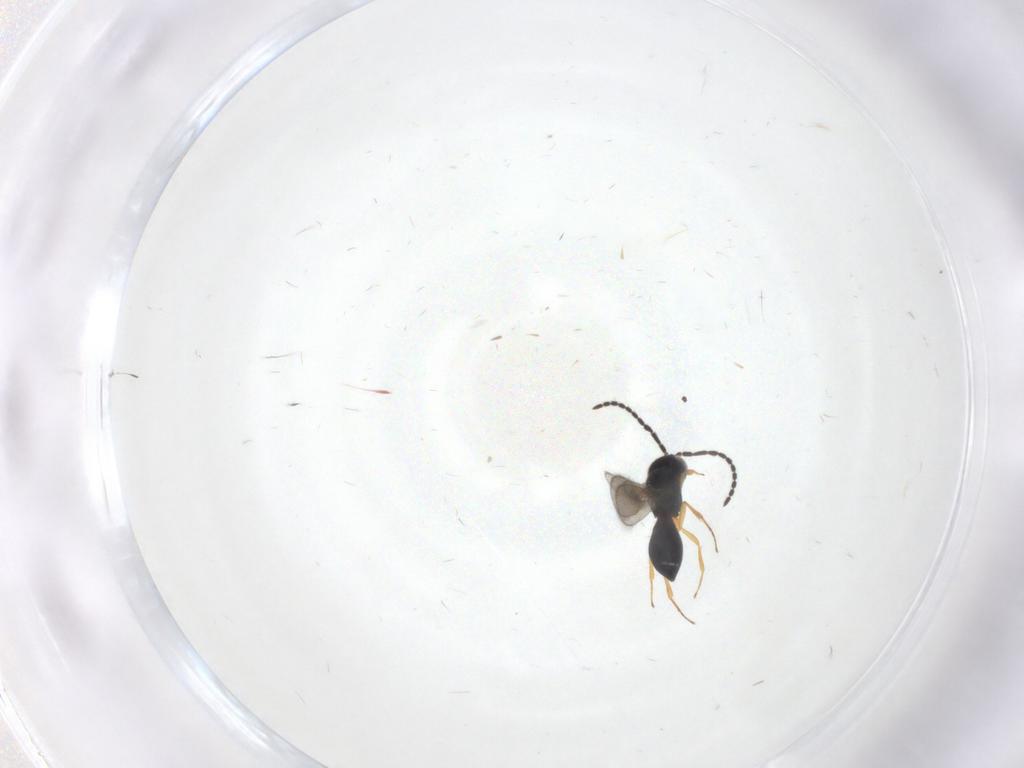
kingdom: Animalia
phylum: Arthropoda
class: Insecta
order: Hymenoptera
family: Scelionidae
